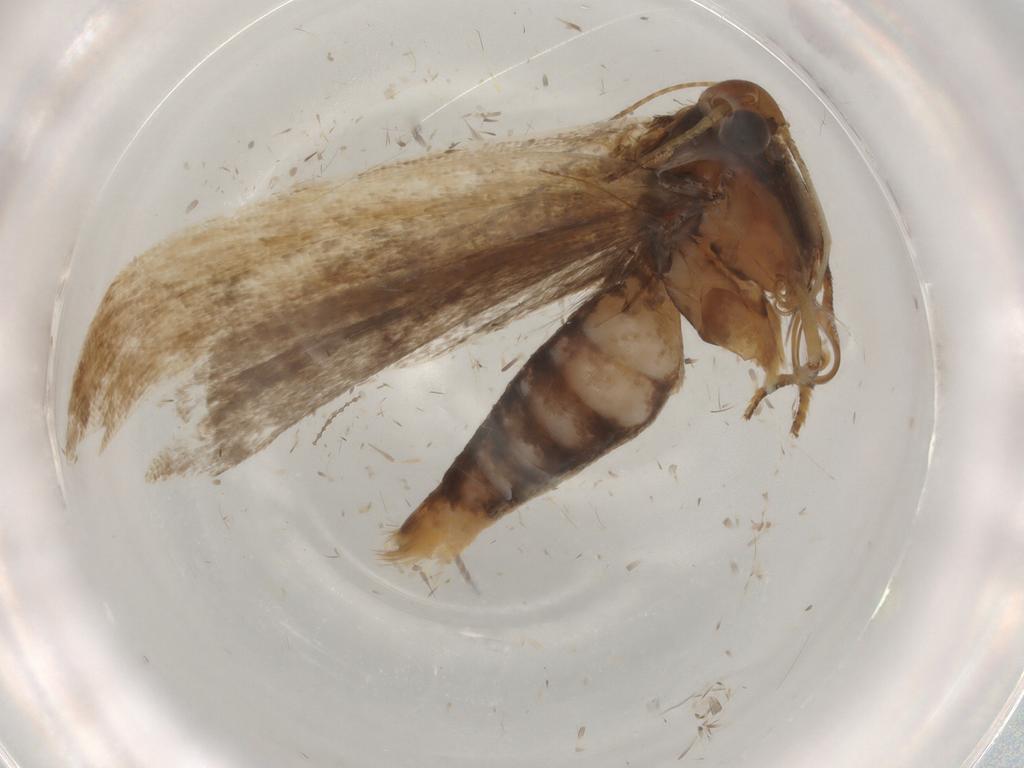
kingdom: Animalia
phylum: Arthropoda
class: Insecta
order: Lepidoptera
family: Gelechiidae
